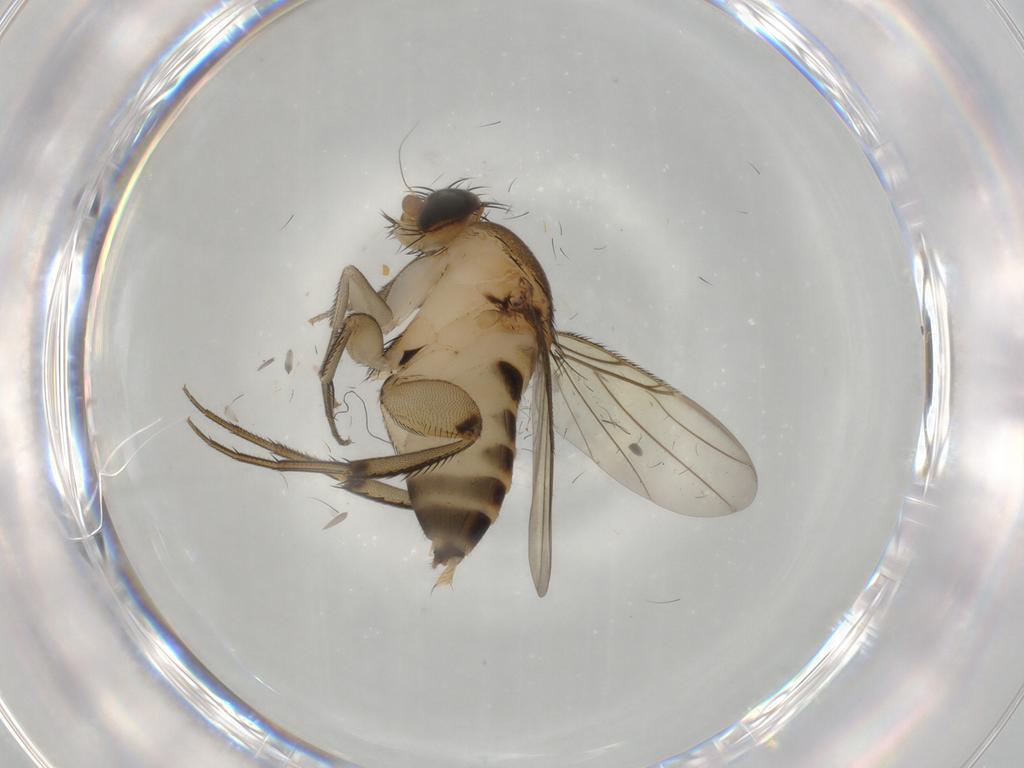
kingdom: Animalia
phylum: Arthropoda
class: Insecta
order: Diptera
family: Phoridae
